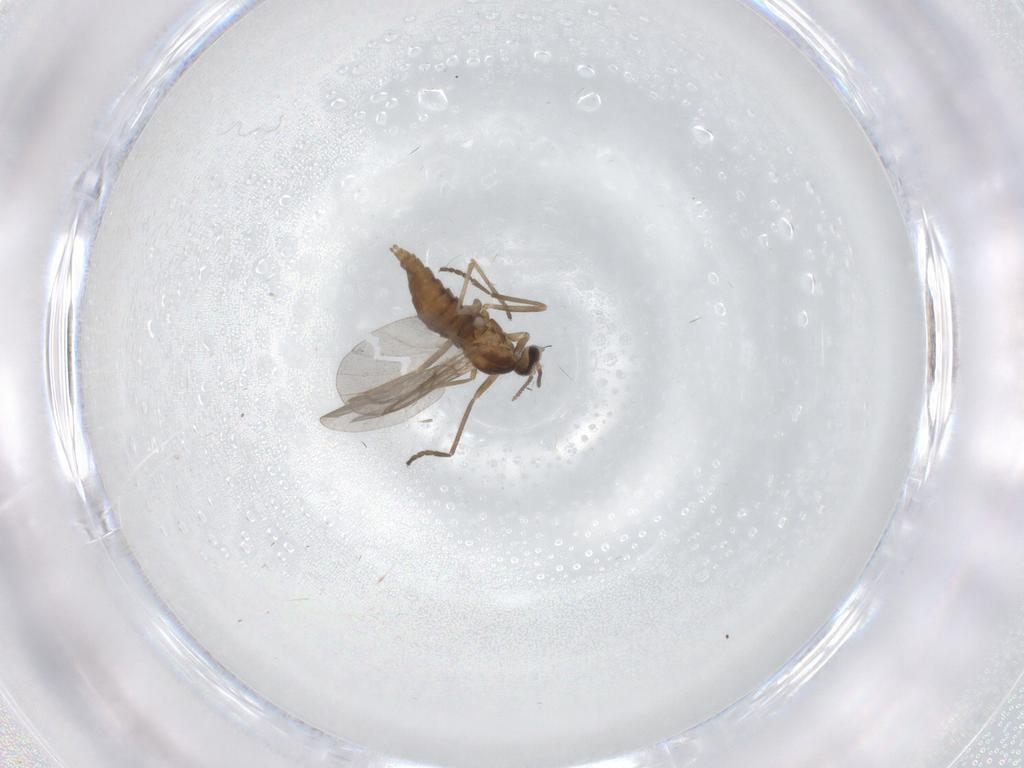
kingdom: Animalia
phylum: Arthropoda
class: Insecta
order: Diptera
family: Cecidomyiidae
